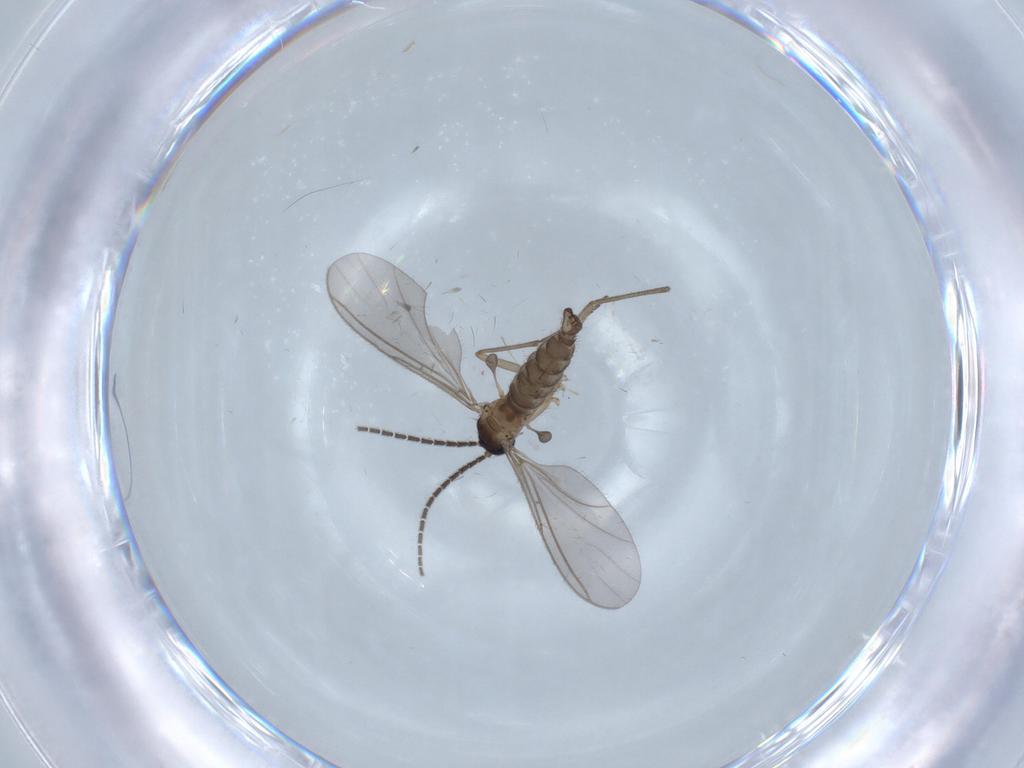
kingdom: Animalia
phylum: Arthropoda
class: Insecta
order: Diptera
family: Sciaridae
